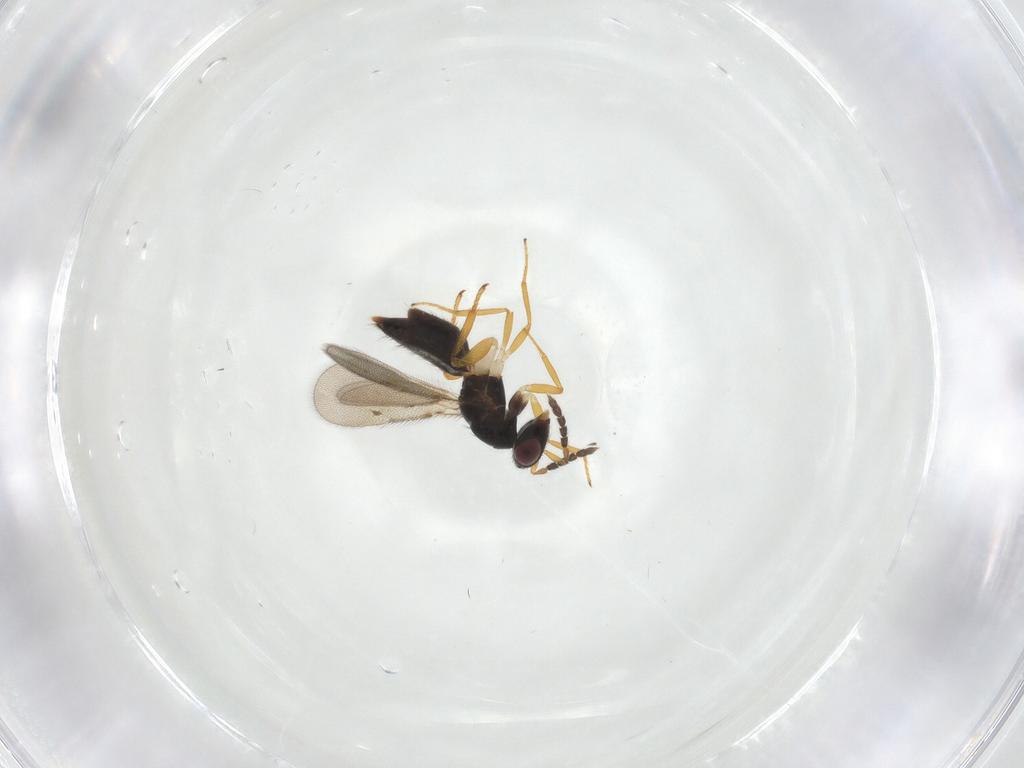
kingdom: Animalia
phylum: Arthropoda
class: Insecta
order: Hymenoptera
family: Eulophidae
